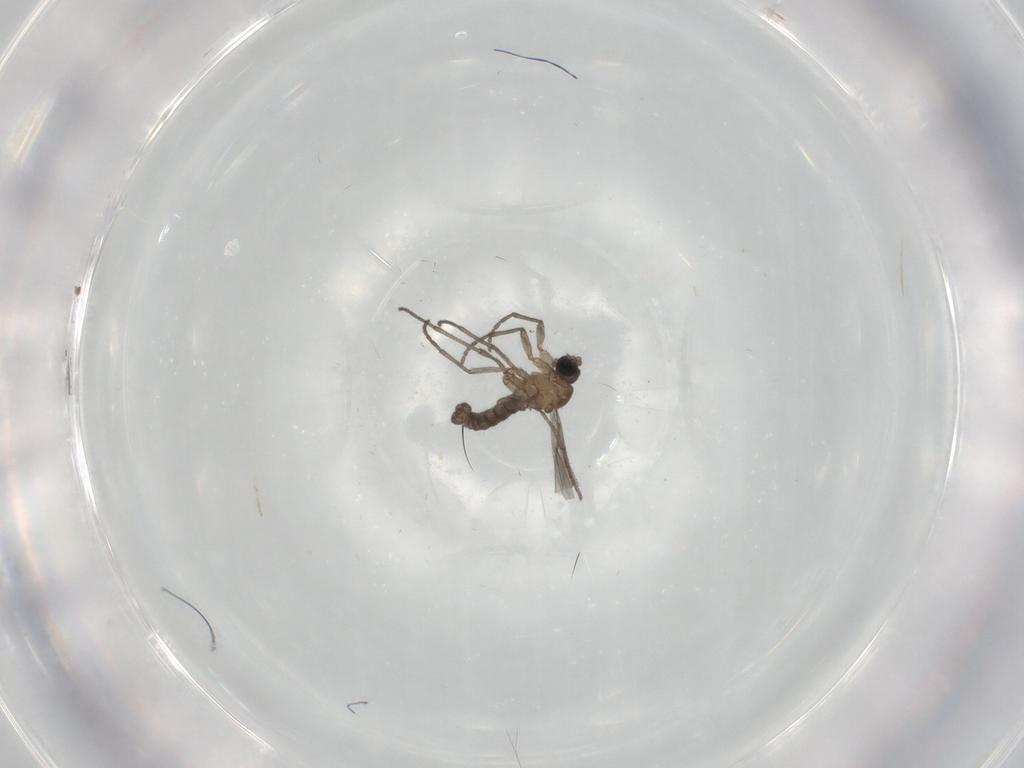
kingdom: Animalia
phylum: Arthropoda
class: Insecta
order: Diptera
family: Sciaridae
